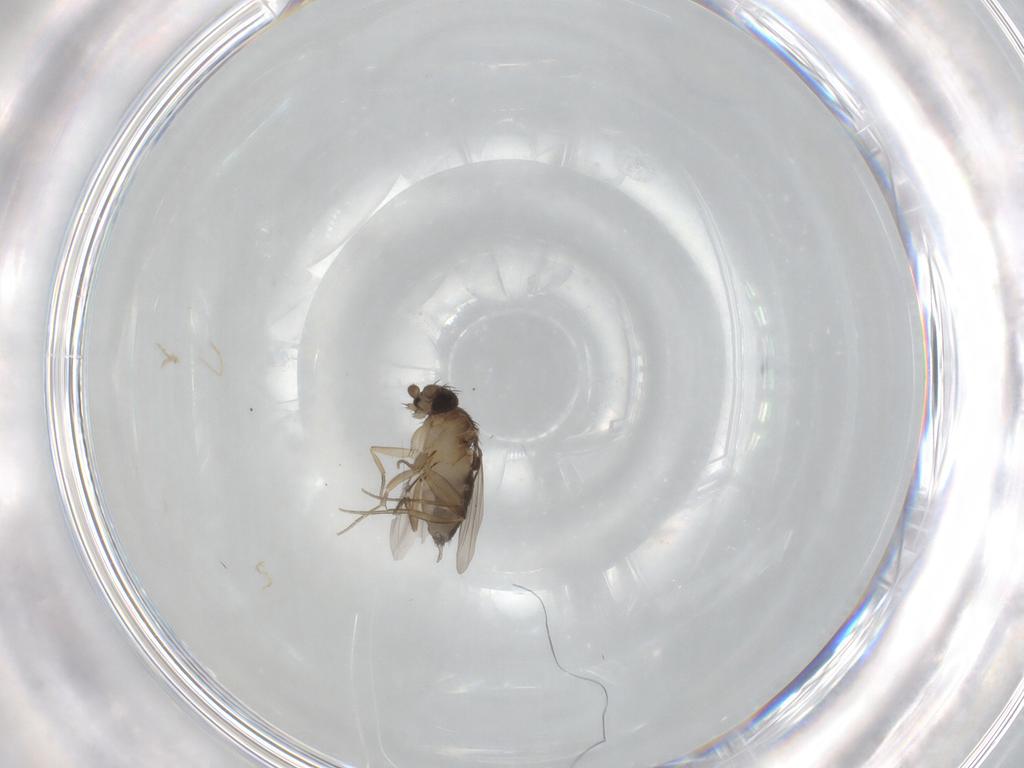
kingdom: Animalia
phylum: Arthropoda
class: Insecta
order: Diptera
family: Phoridae
